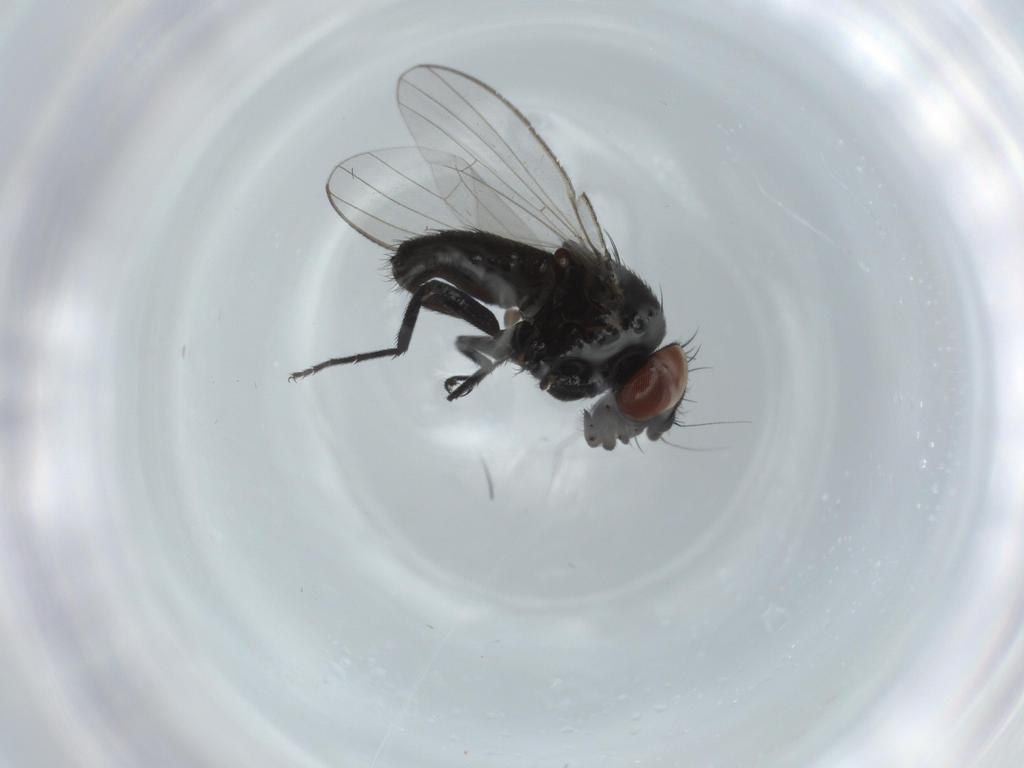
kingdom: Animalia
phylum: Arthropoda
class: Insecta
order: Diptera
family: Milichiidae
